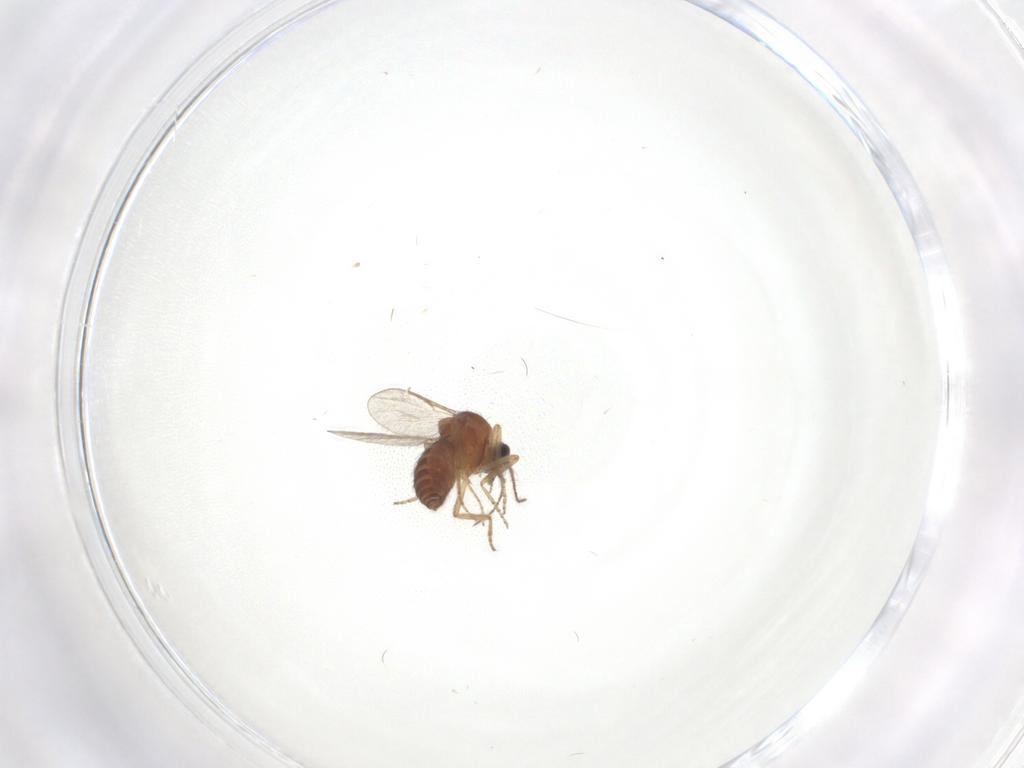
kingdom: Animalia
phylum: Arthropoda
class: Insecta
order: Diptera
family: Ceratopogonidae
